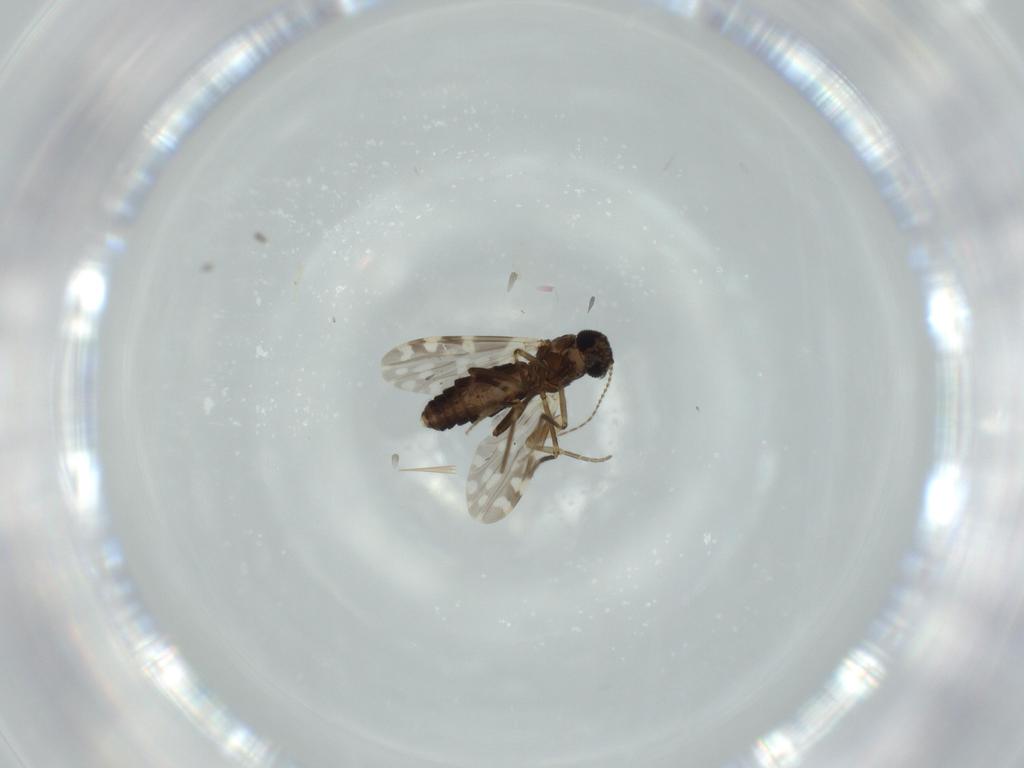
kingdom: Animalia
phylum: Arthropoda
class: Insecta
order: Diptera
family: Ceratopogonidae
